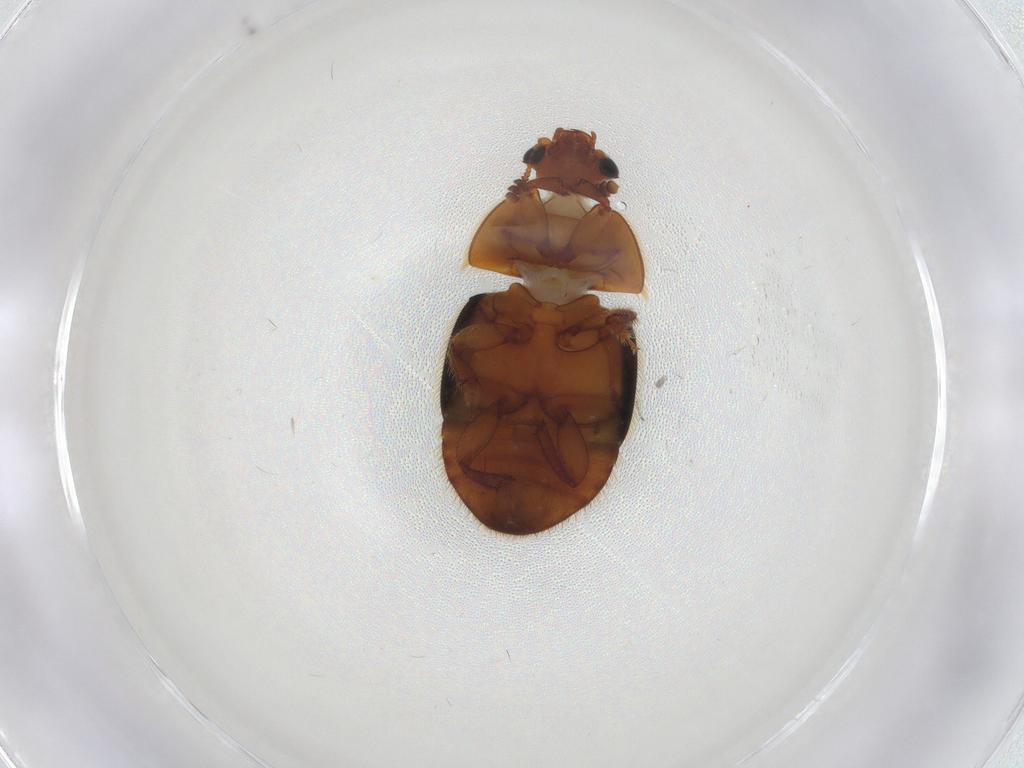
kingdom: Animalia
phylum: Arthropoda
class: Insecta
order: Coleoptera
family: Nitidulidae
